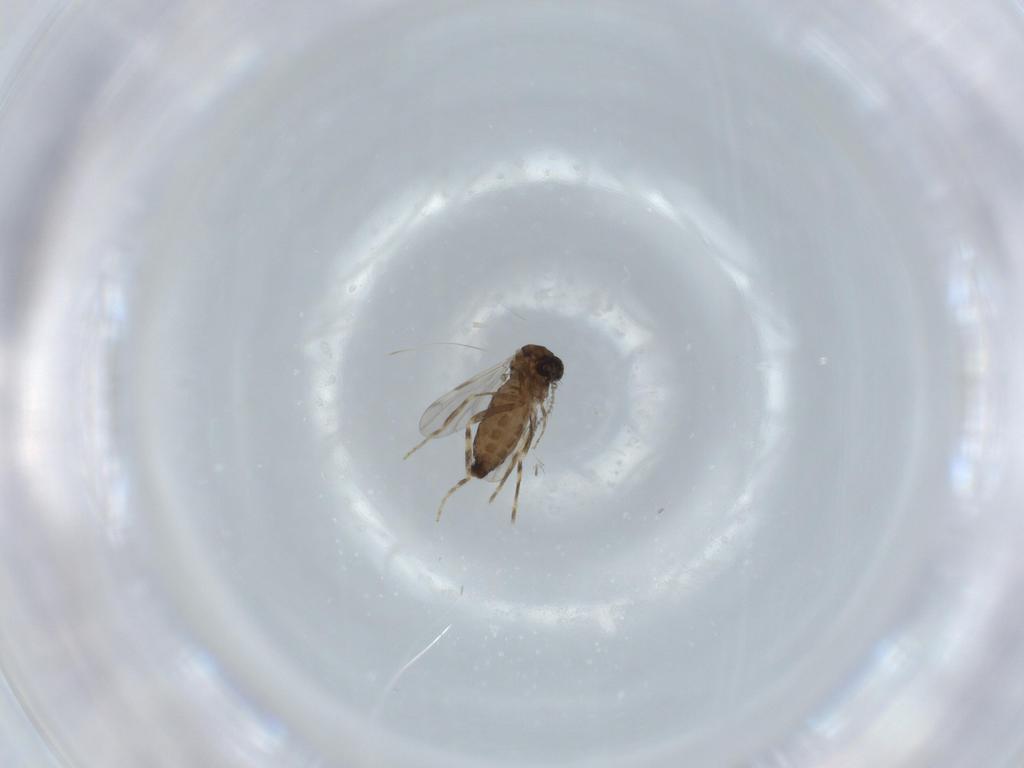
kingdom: Animalia
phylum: Arthropoda
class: Insecta
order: Diptera
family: Ceratopogonidae
